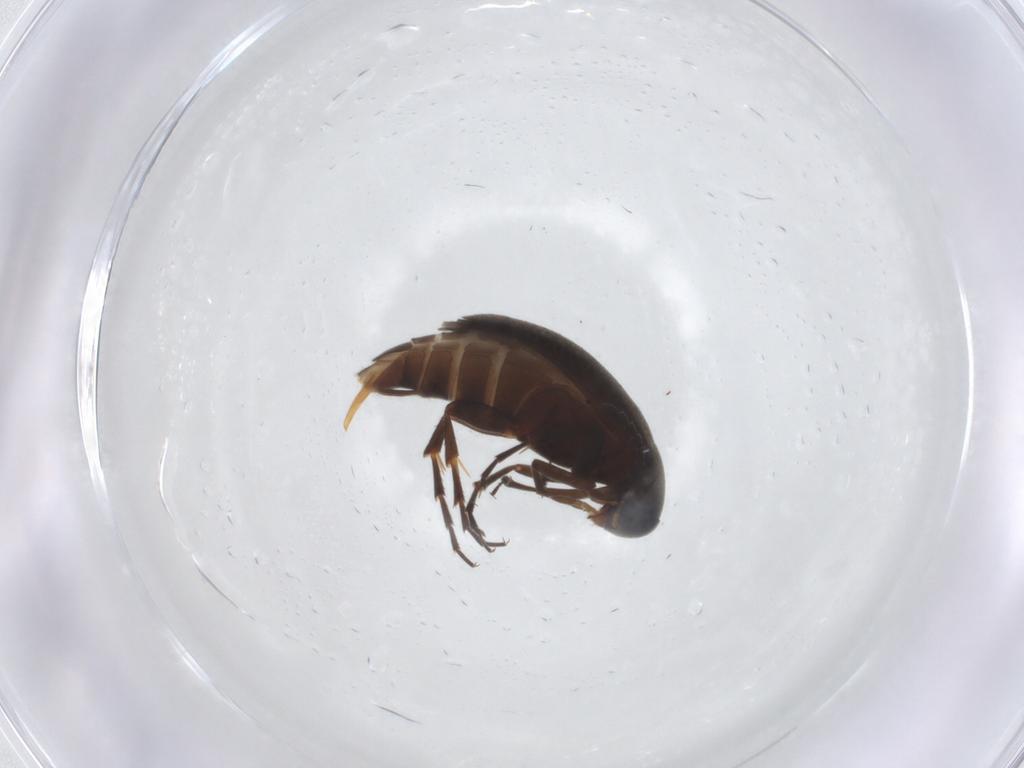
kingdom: Animalia
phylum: Arthropoda
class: Insecta
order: Coleoptera
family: Scraptiidae
